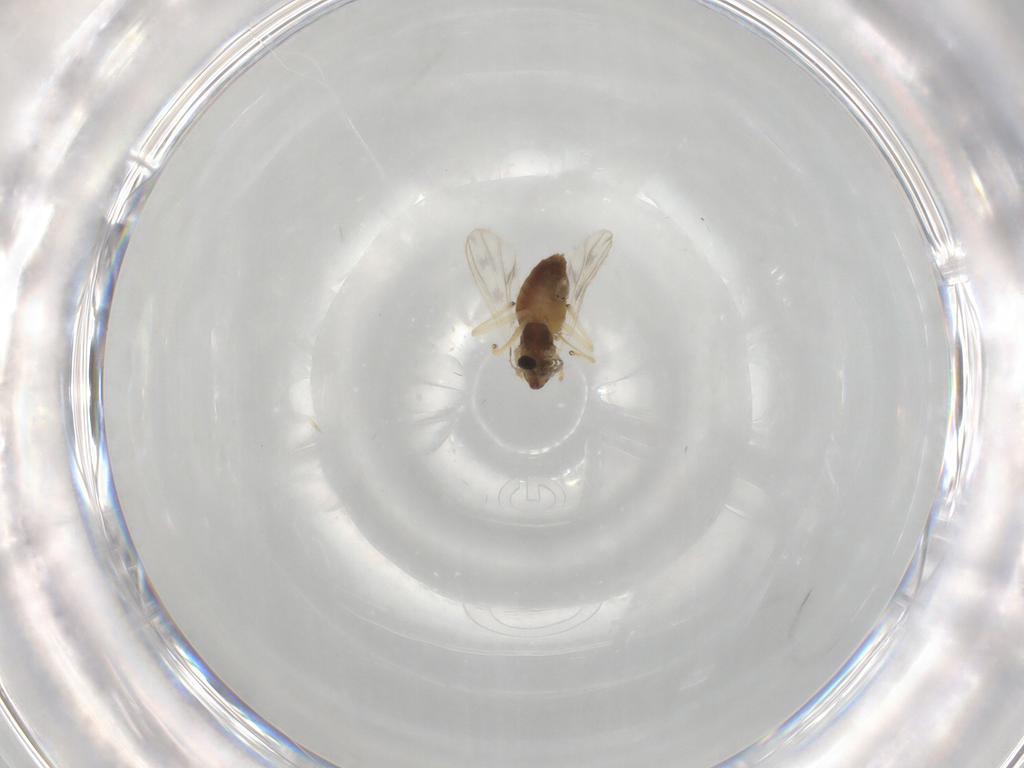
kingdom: Animalia
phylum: Arthropoda
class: Insecta
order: Diptera
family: Chironomidae
